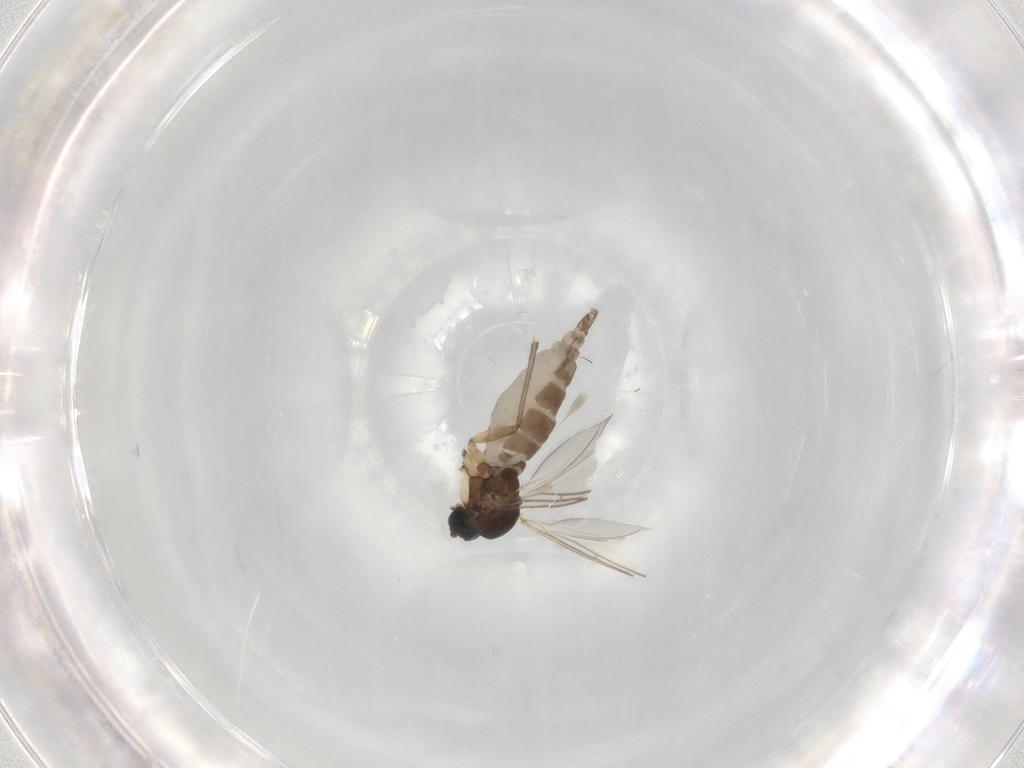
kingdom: Animalia
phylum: Arthropoda
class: Insecta
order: Diptera
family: Sciaridae
